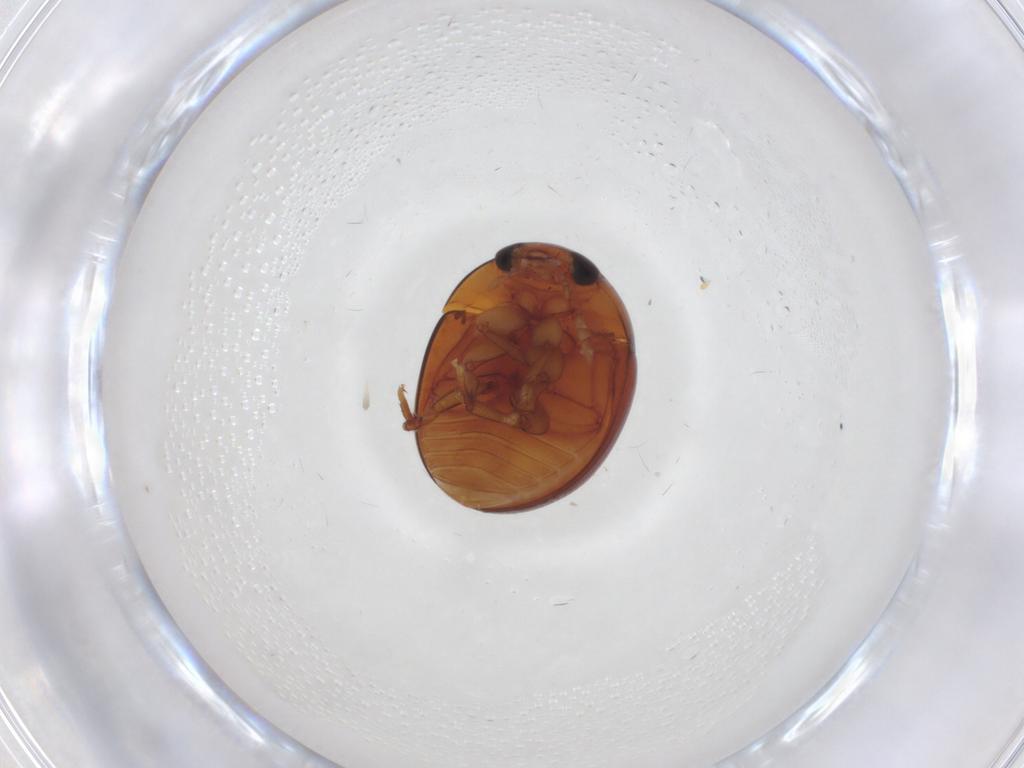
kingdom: Animalia
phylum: Arthropoda
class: Insecta
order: Coleoptera
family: Phalacridae
